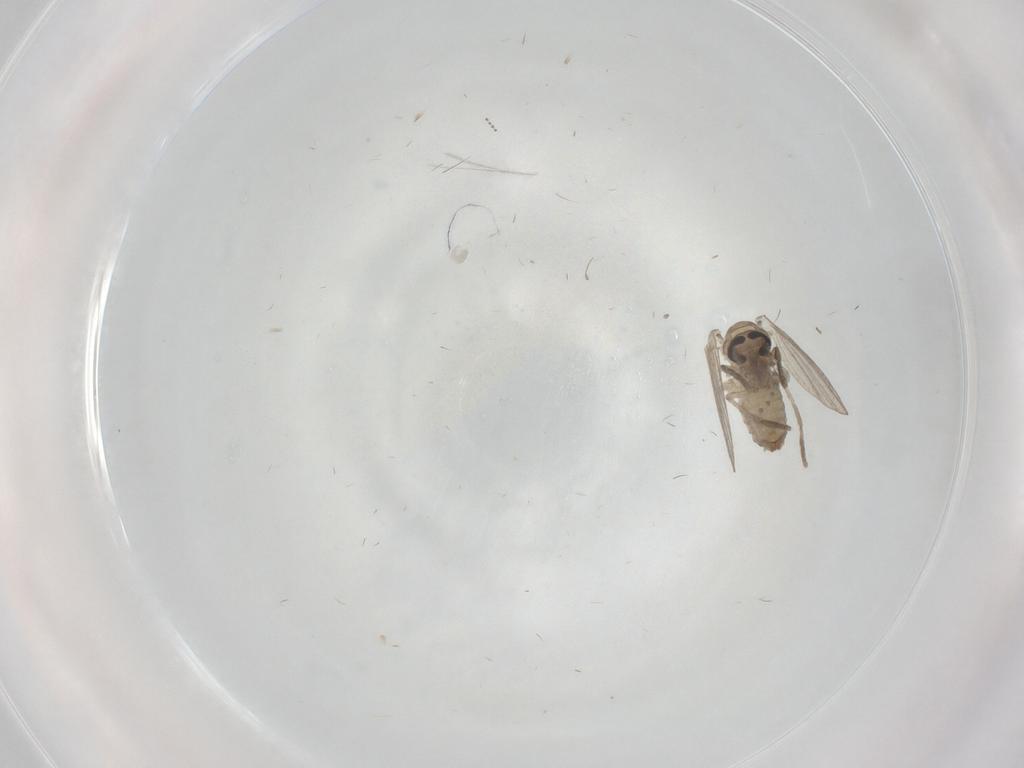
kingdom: Animalia
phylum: Arthropoda
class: Insecta
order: Diptera
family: Psychodidae
